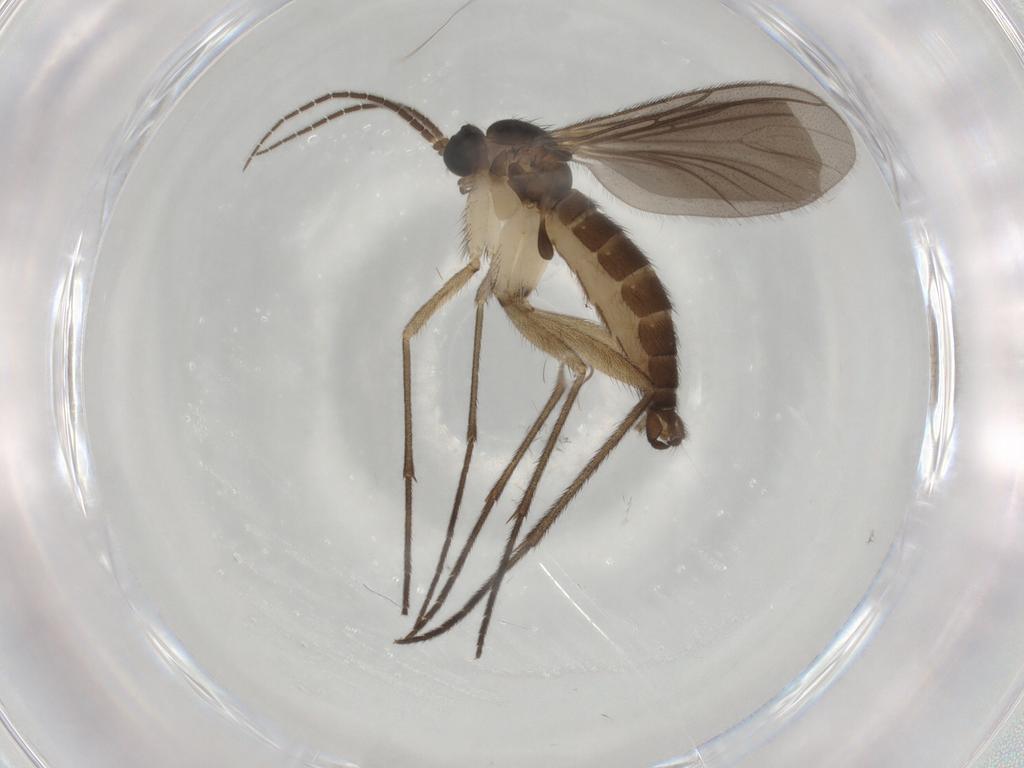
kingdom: Animalia
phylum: Arthropoda
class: Insecta
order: Diptera
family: Sciaridae
